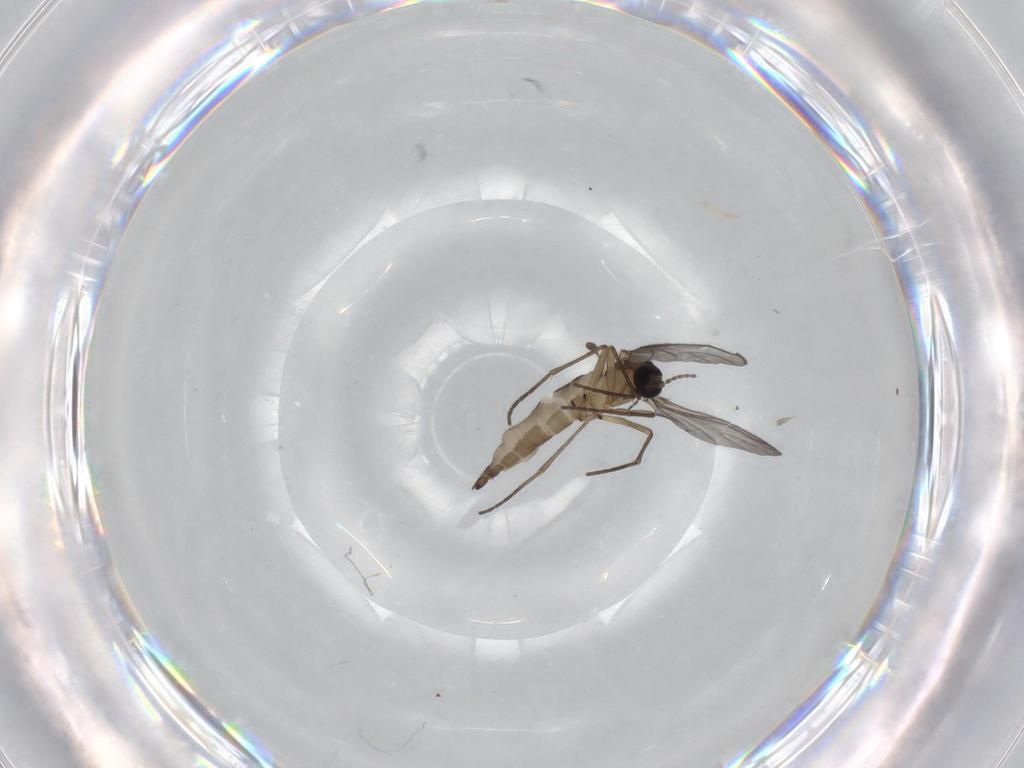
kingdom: Animalia
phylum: Arthropoda
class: Insecta
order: Diptera
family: Sciaridae
